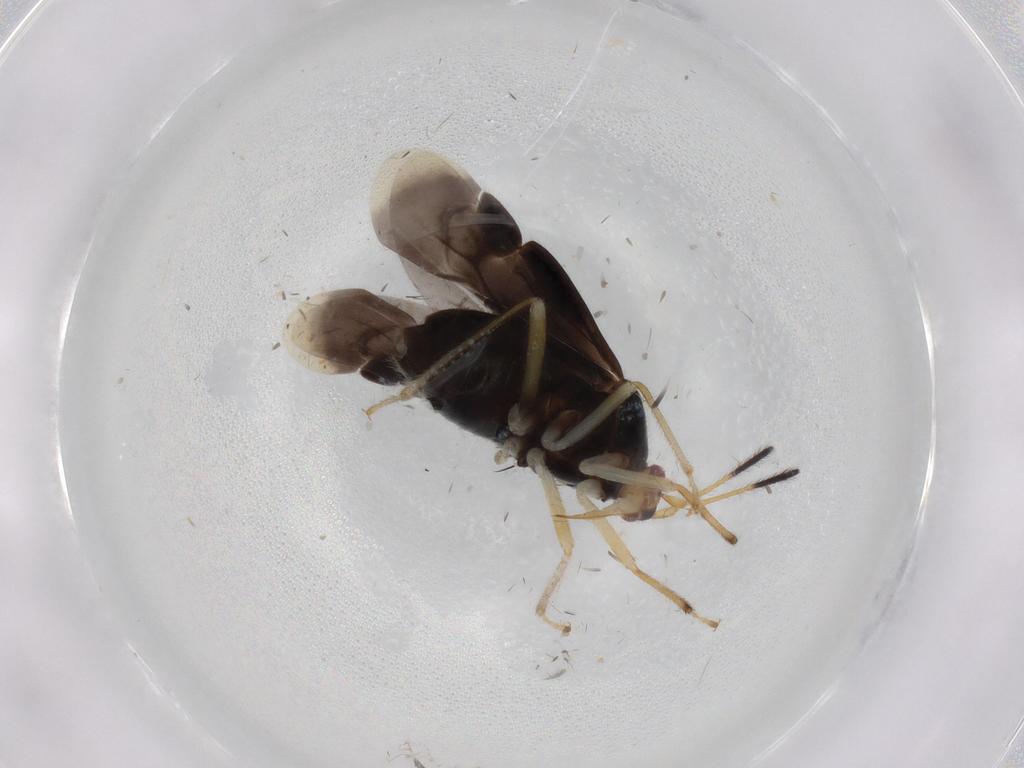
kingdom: Animalia
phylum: Arthropoda
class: Insecta
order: Hemiptera
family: Miridae
